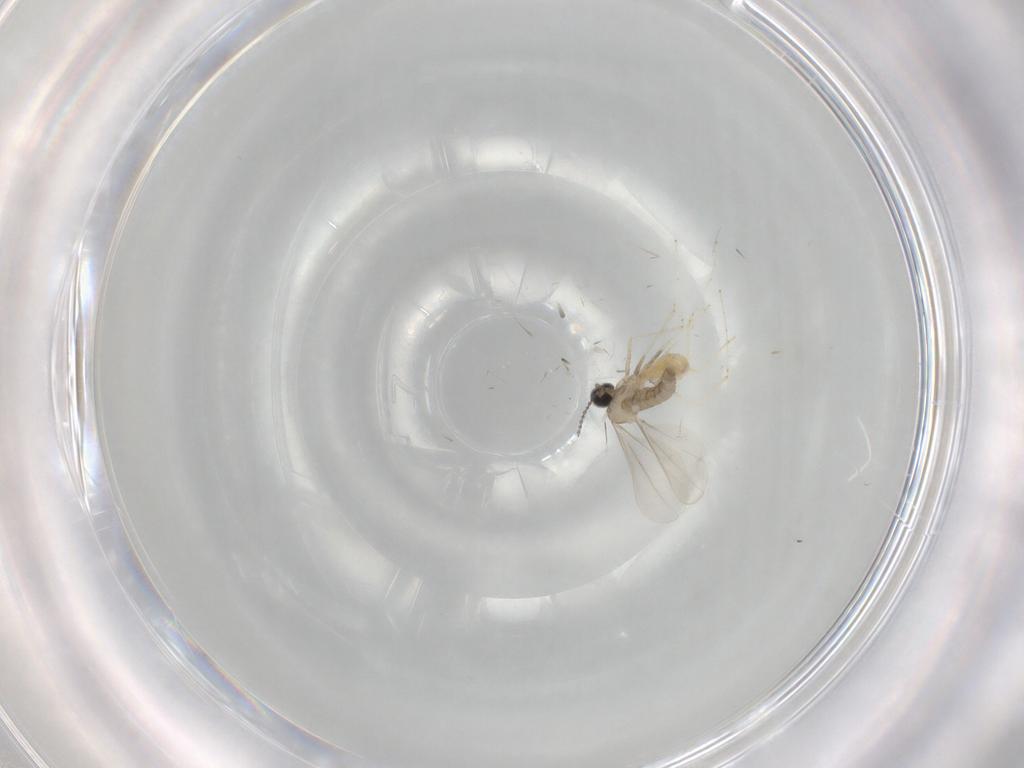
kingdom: Animalia
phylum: Arthropoda
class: Insecta
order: Diptera
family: Cecidomyiidae
